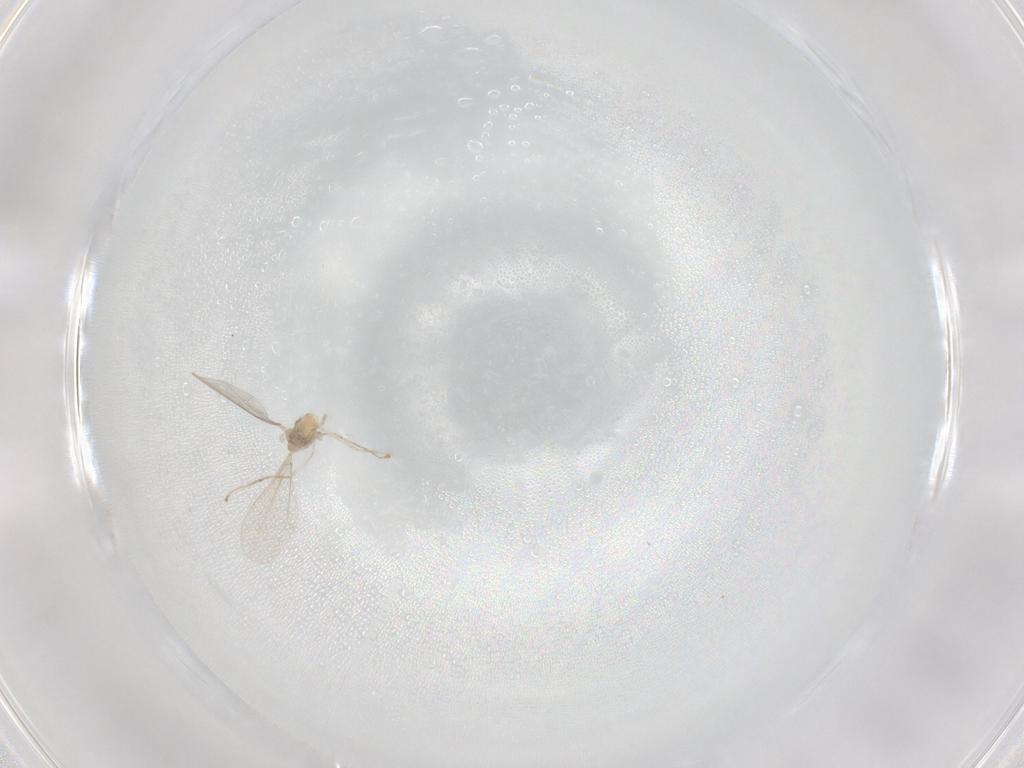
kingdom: Animalia
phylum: Arthropoda
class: Insecta
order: Diptera
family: Cecidomyiidae
